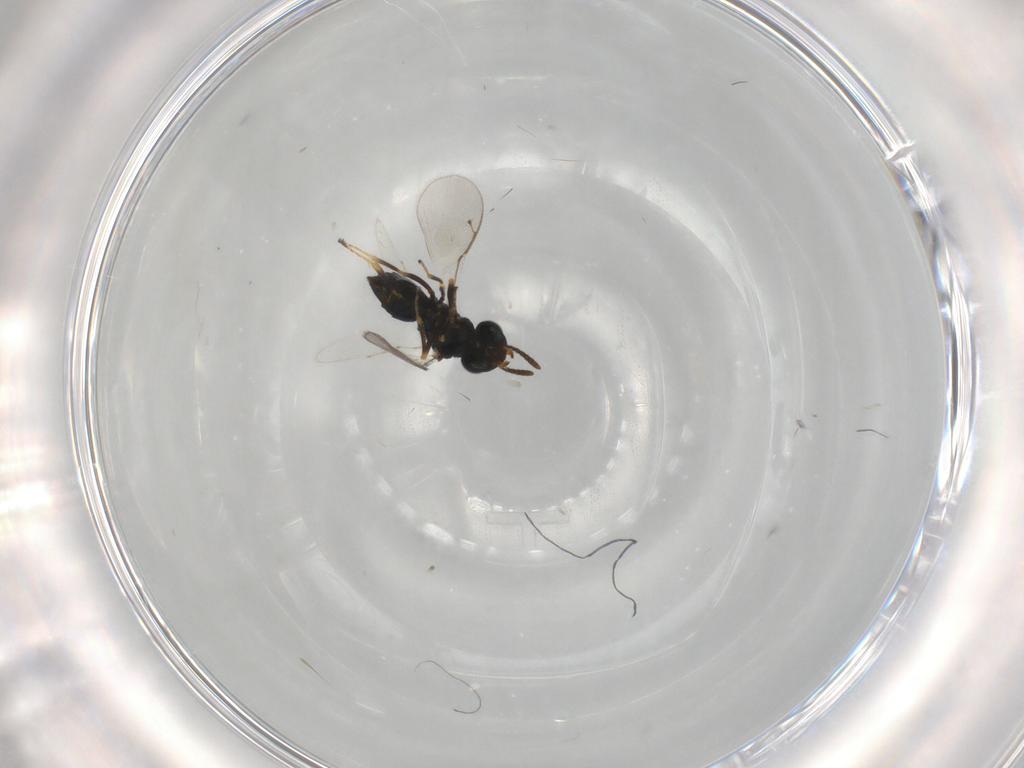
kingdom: Animalia
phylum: Arthropoda
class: Insecta
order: Hymenoptera
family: Pteromalidae
